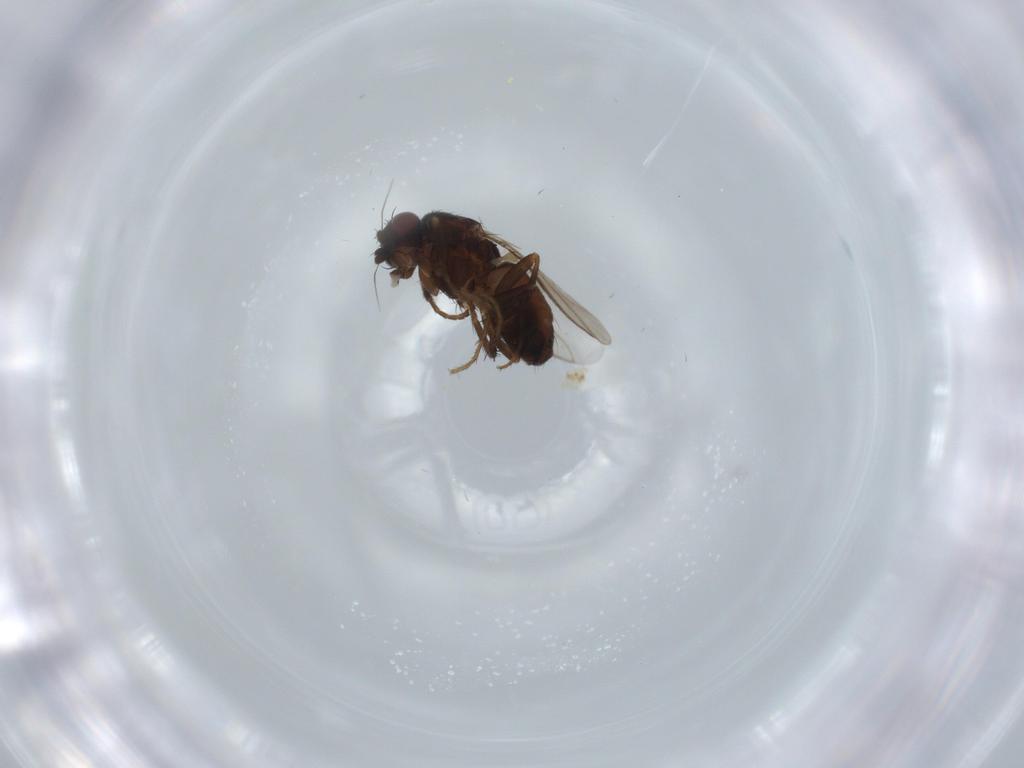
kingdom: Animalia
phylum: Arthropoda
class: Insecta
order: Diptera
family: Sphaeroceridae
